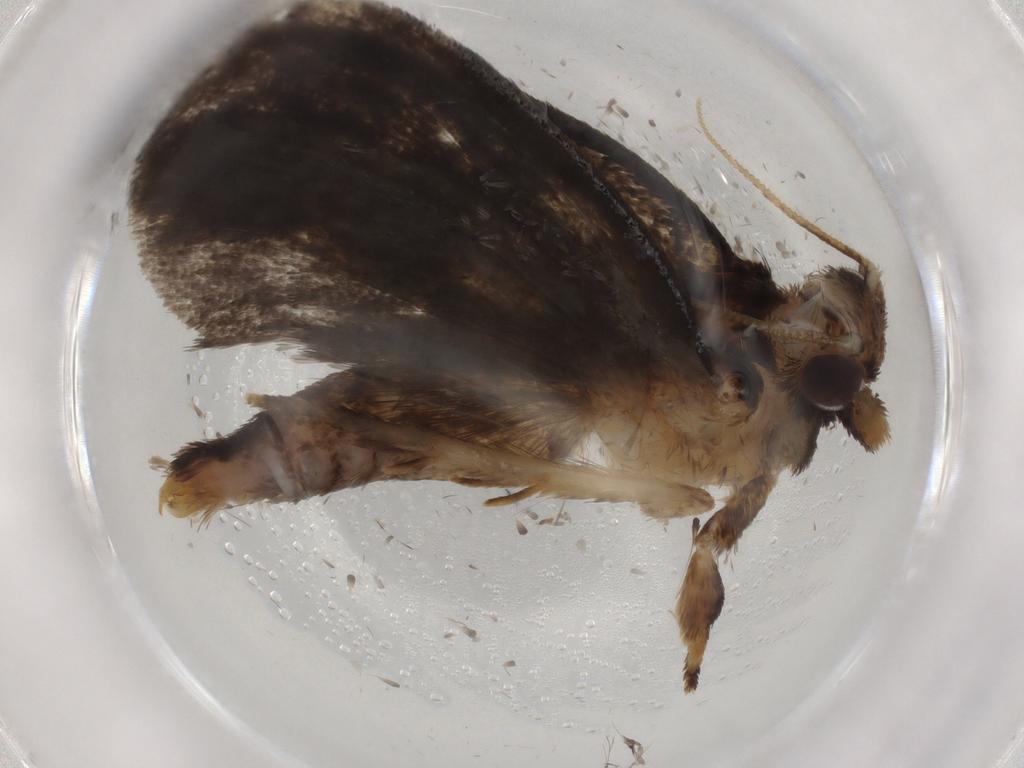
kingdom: Animalia
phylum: Arthropoda
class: Insecta
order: Lepidoptera
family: Tineidae
